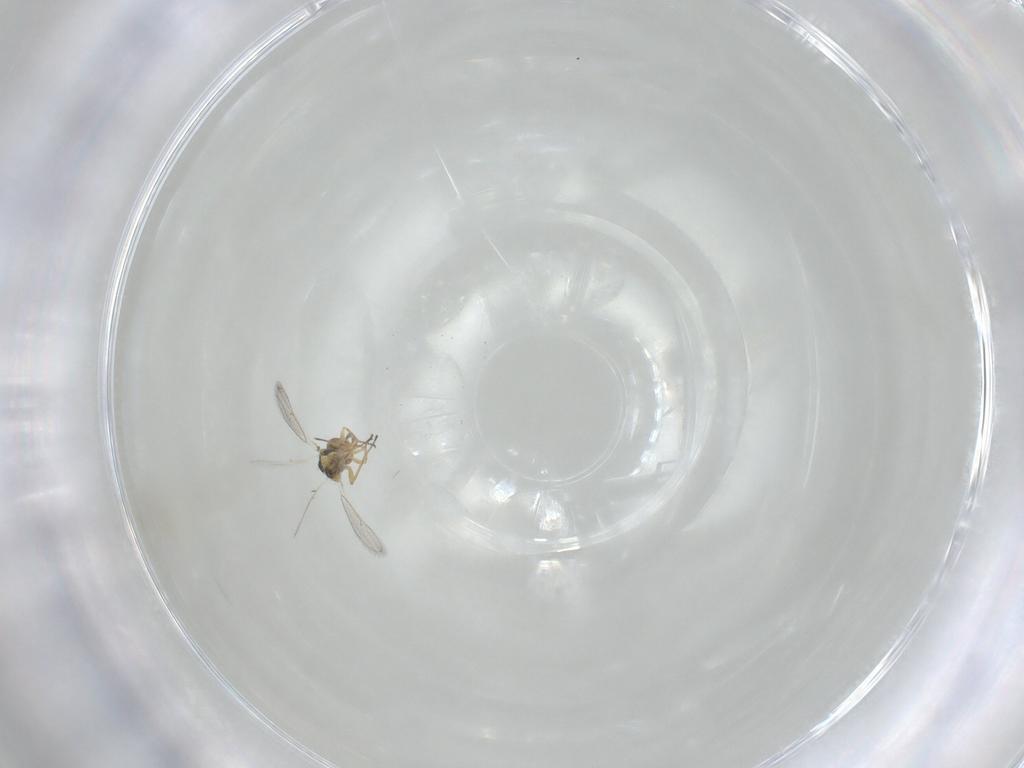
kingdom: Animalia
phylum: Arthropoda
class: Insecta
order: Hymenoptera
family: Eulophidae
